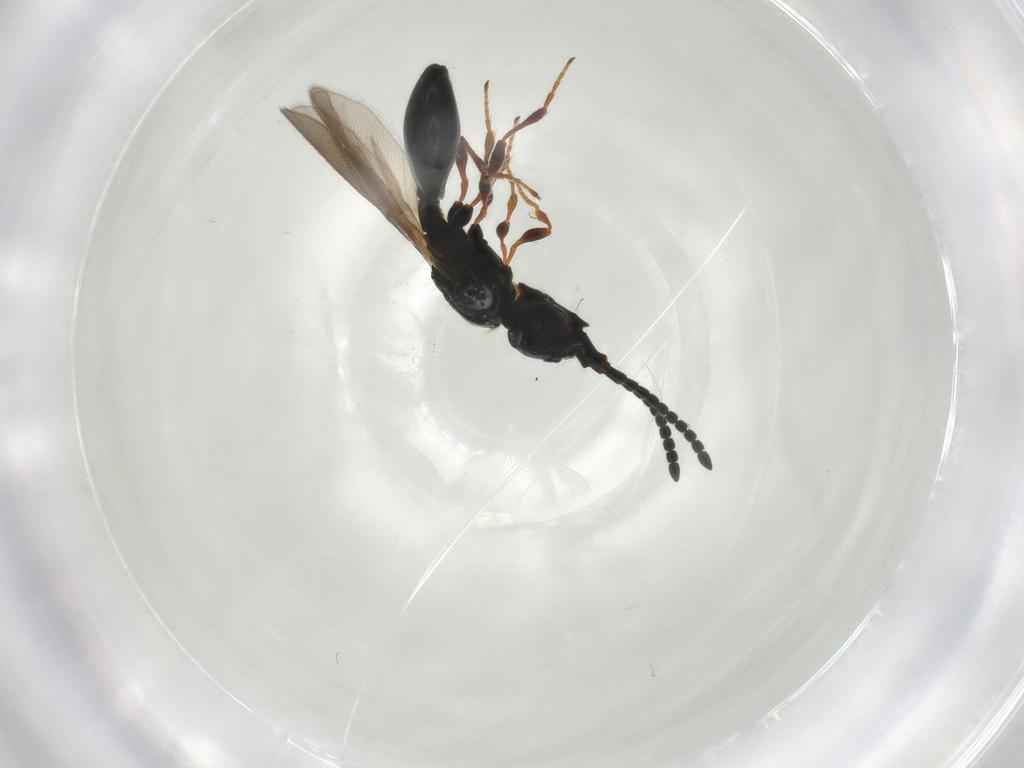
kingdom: Animalia
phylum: Arthropoda
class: Insecta
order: Hymenoptera
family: Diapriidae
